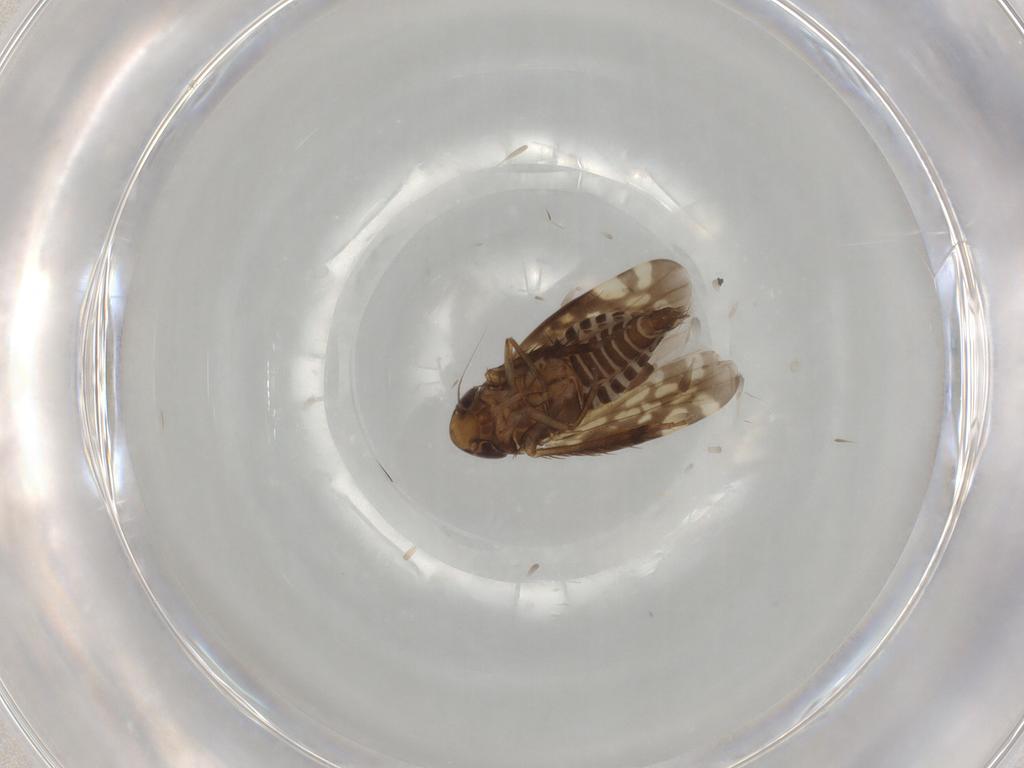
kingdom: Animalia
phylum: Arthropoda
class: Insecta
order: Hemiptera
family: Cicadellidae
